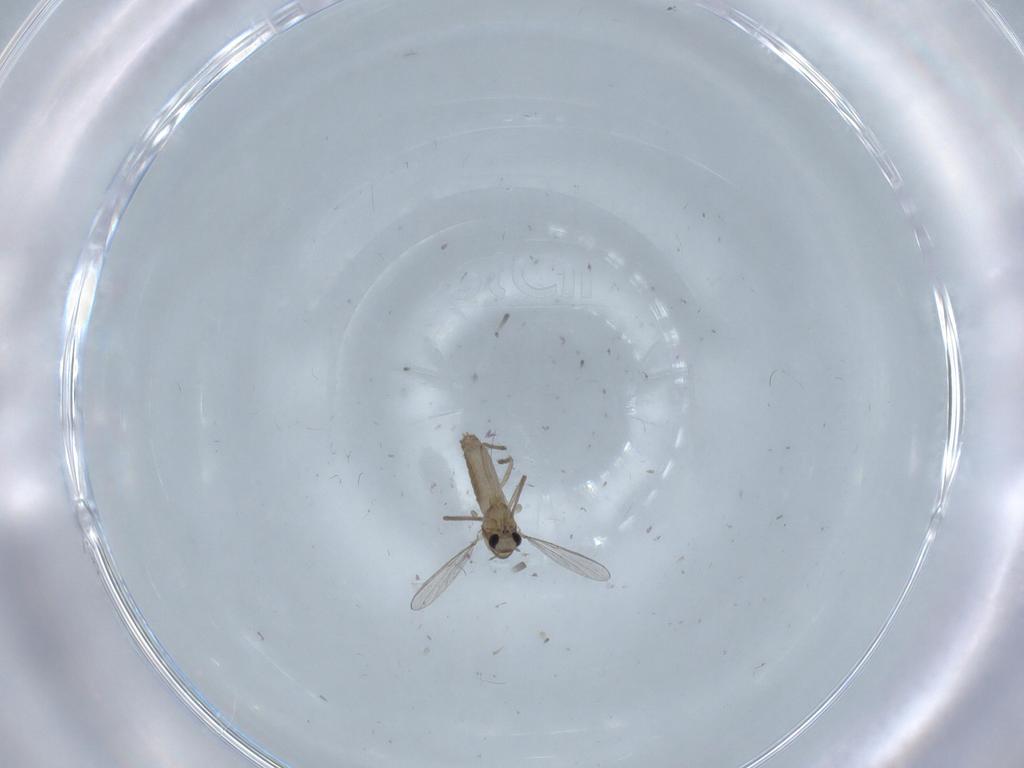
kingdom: Animalia
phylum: Arthropoda
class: Insecta
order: Diptera
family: Chironomidae
